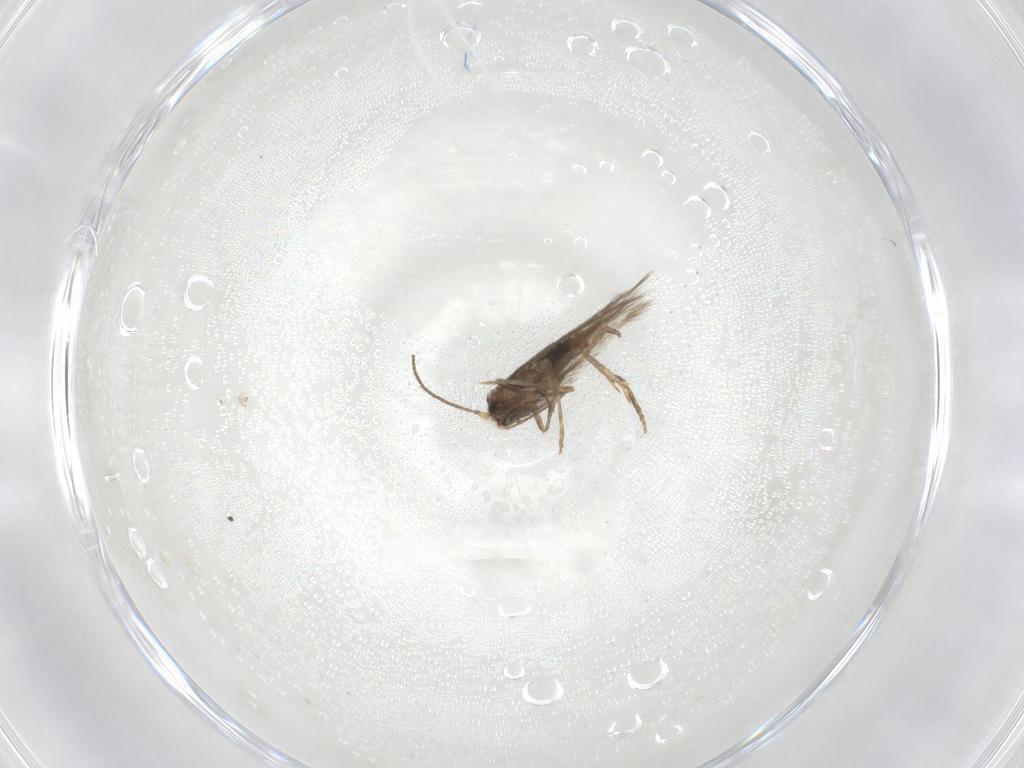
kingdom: Animalia
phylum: Arthropoda
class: Insecta
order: Lepidoptera
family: Nepticulidae
